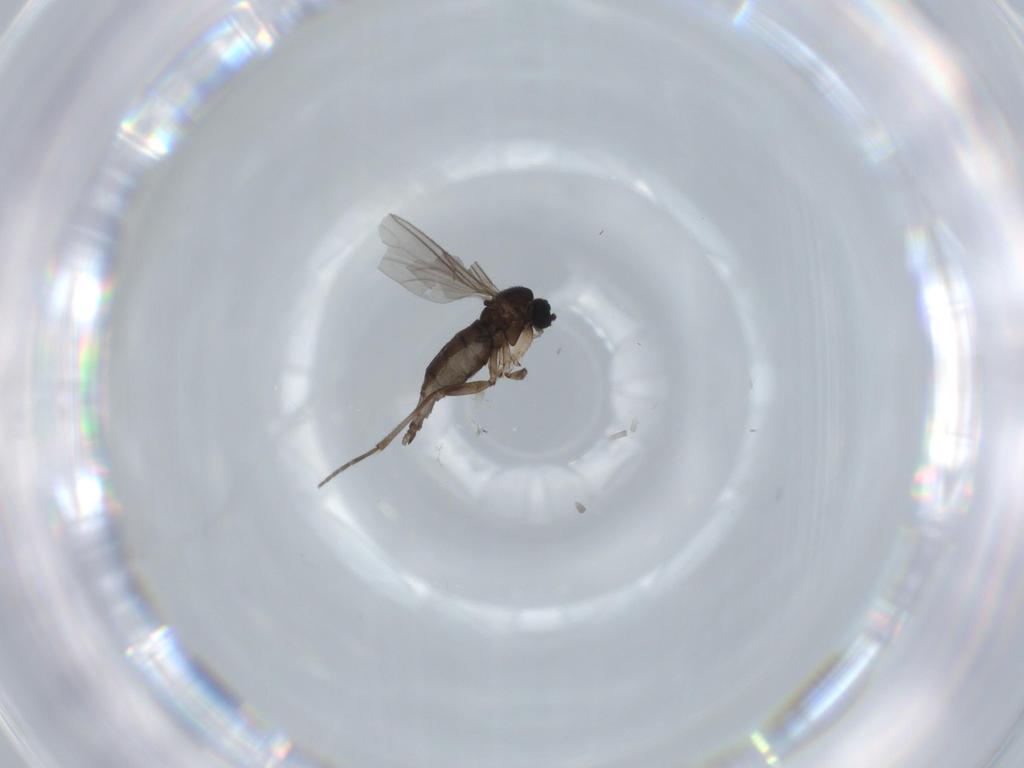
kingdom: Animalia
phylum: Arthropoda
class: Insecta
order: Diptera
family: Sciaridae
